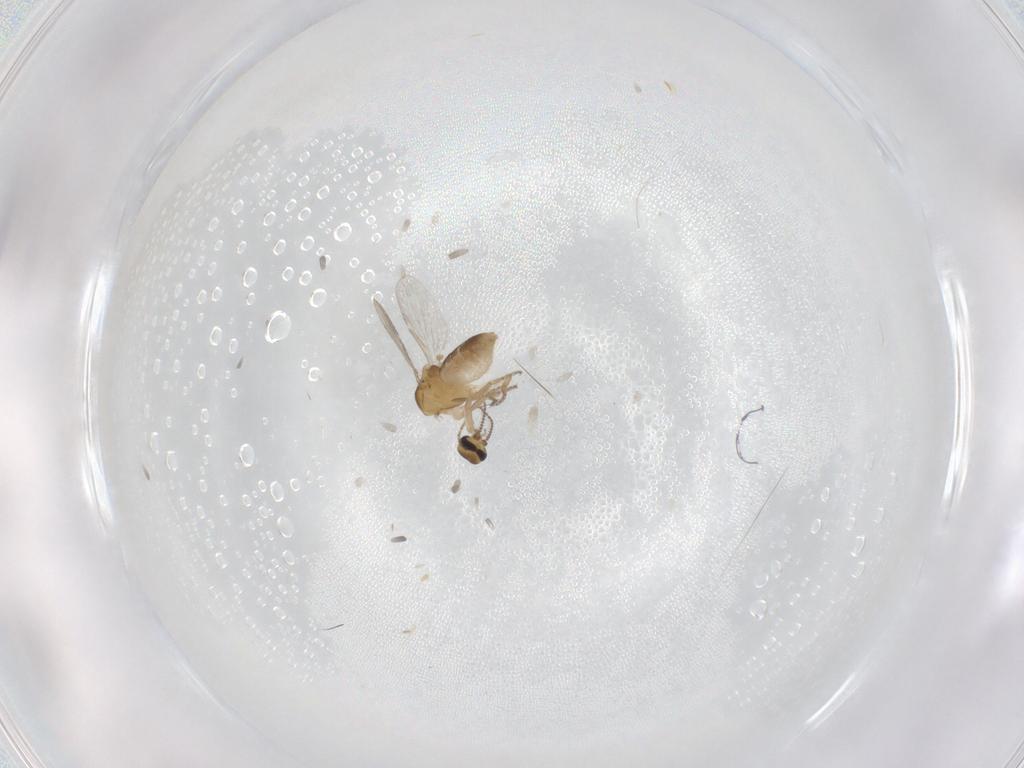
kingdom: Animalia
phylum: Arthropoda
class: Insecta
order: Diptera
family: Ceratopogonidae
